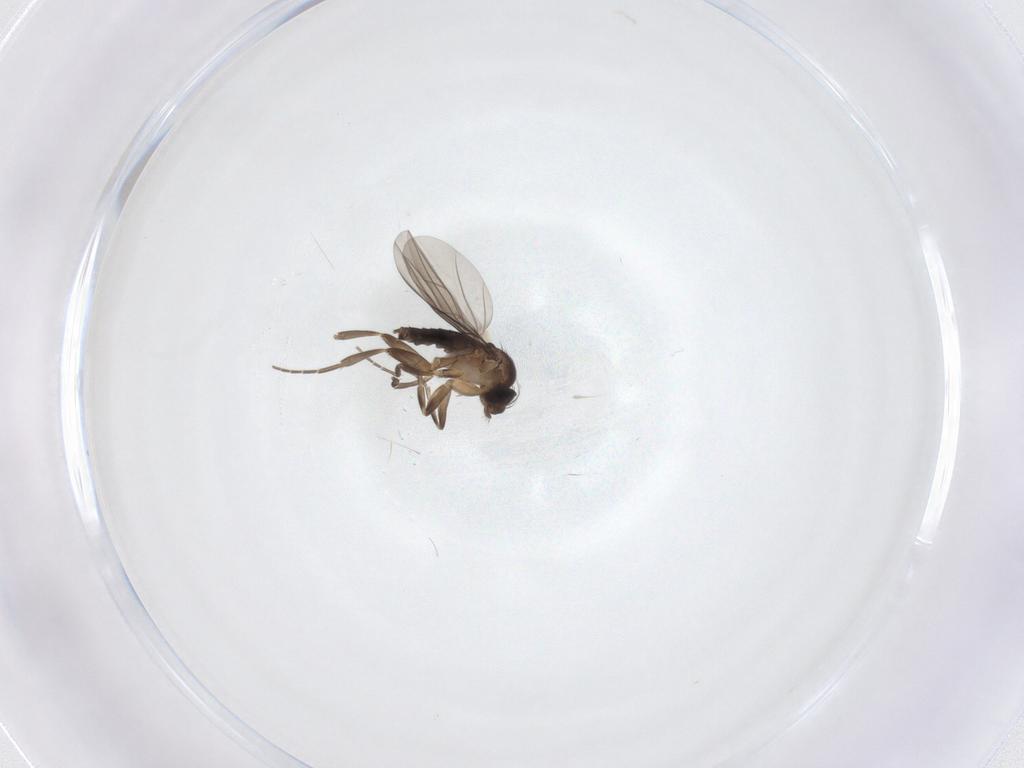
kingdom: Animalia
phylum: Arthropoda
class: Insecta
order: Diptera
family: Phoridae
